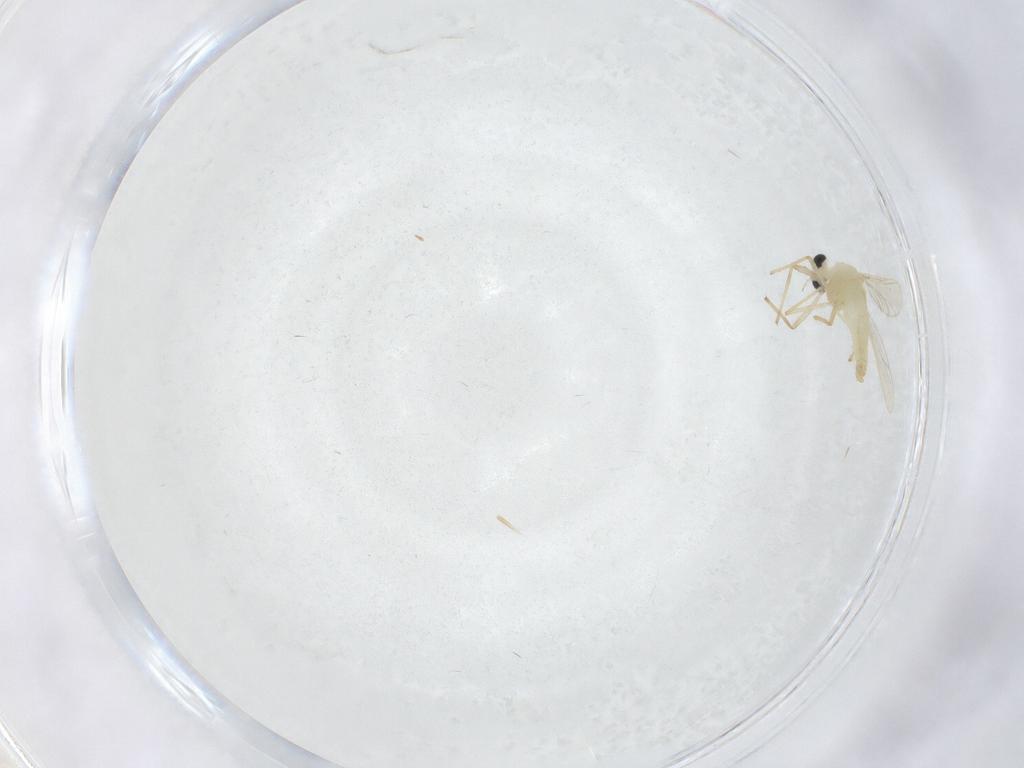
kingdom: Animalia
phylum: Arthropoda
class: Insecta
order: Diptera
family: Chironomidae
